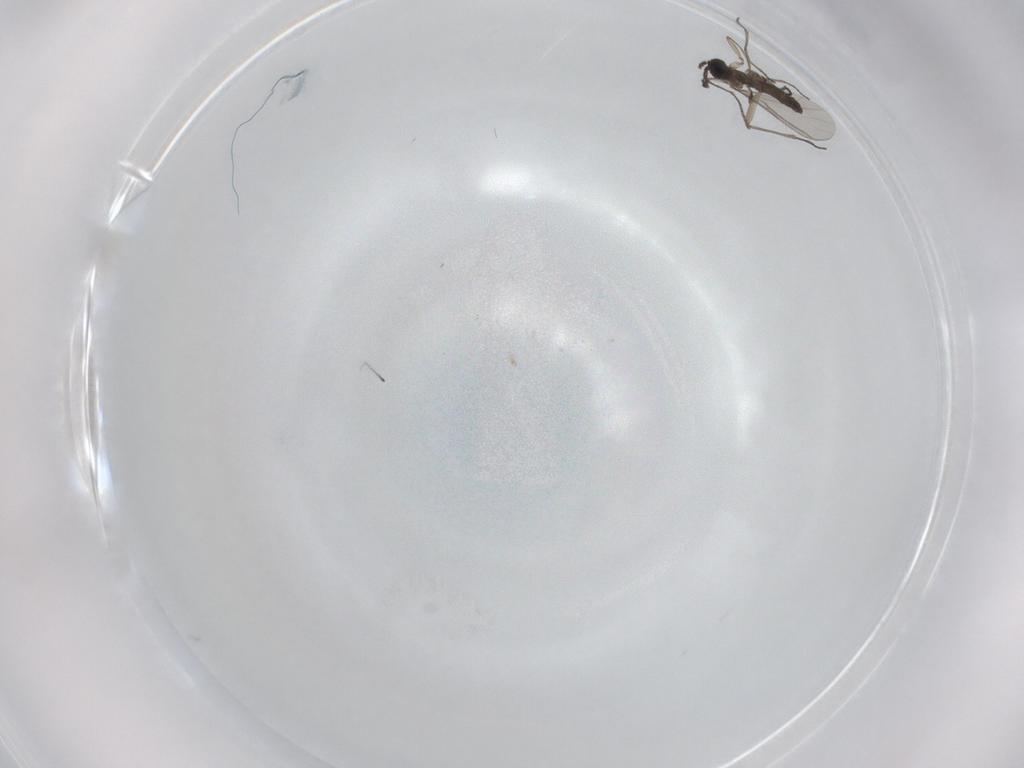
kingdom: Animalia
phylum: Arthropoda
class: Insecta
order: Diptera
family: Sciaridae
